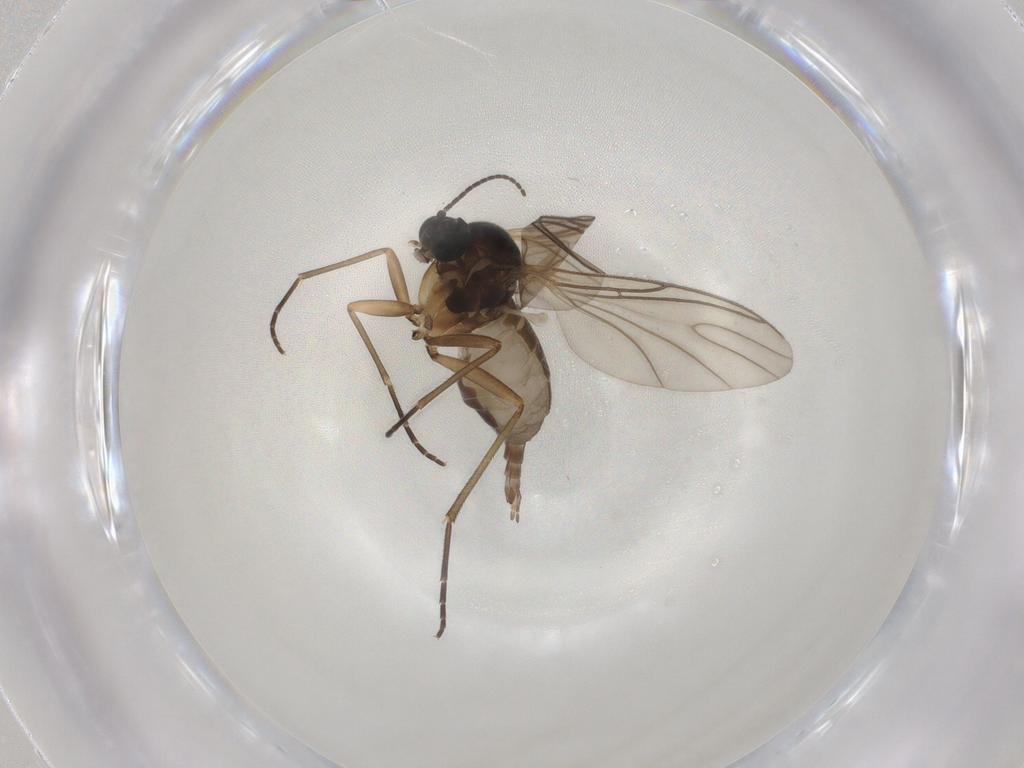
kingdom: Animalia
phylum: Arthropoda
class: Insecta
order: Diptera
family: Sciaridae
